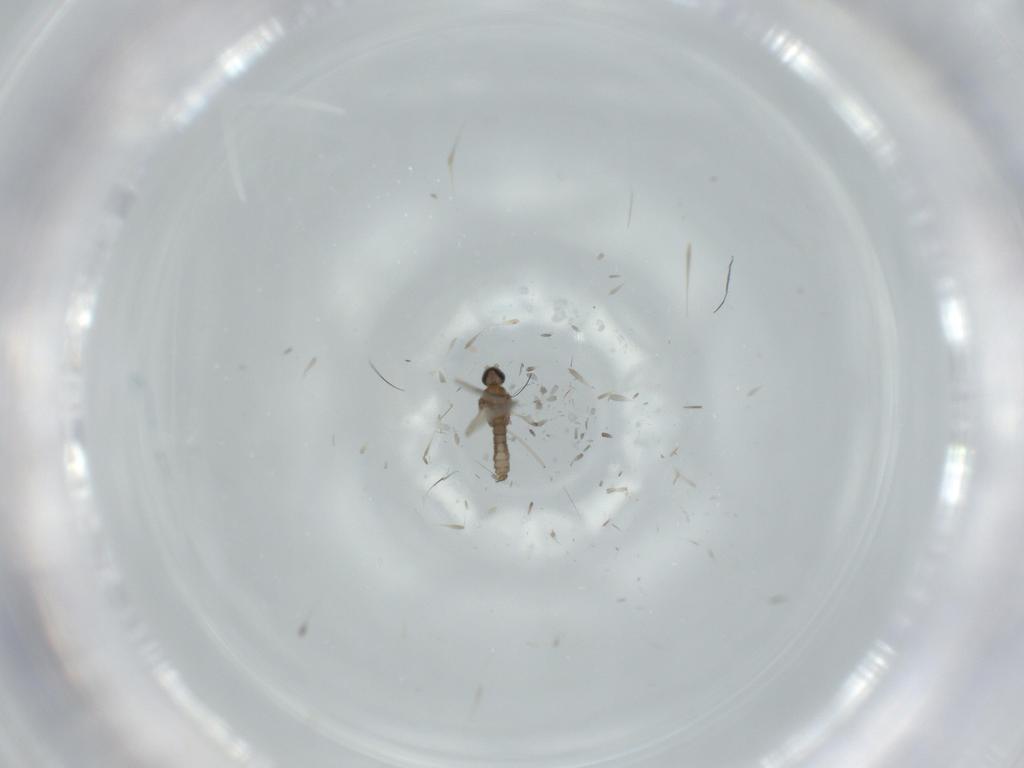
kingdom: Animalia
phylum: Arthropoda
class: Insecta
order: Diptera
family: Dolichopodidae
